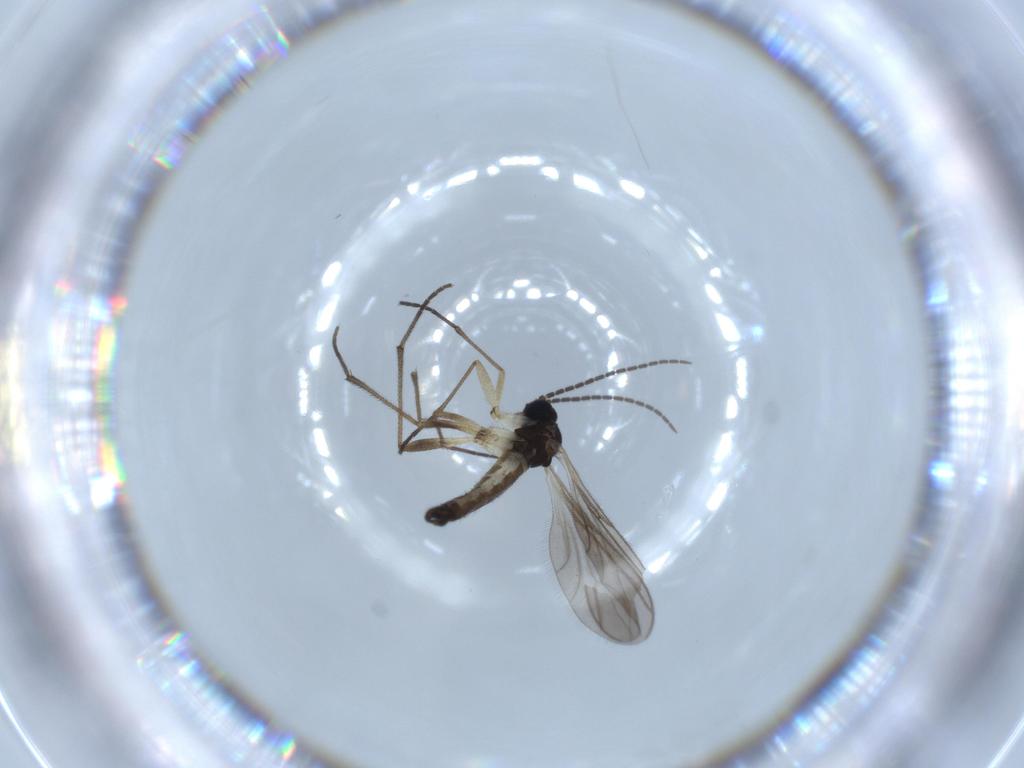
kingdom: Animalia
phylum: Arthropoda
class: Insecta
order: Diptera
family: Sciaridae
